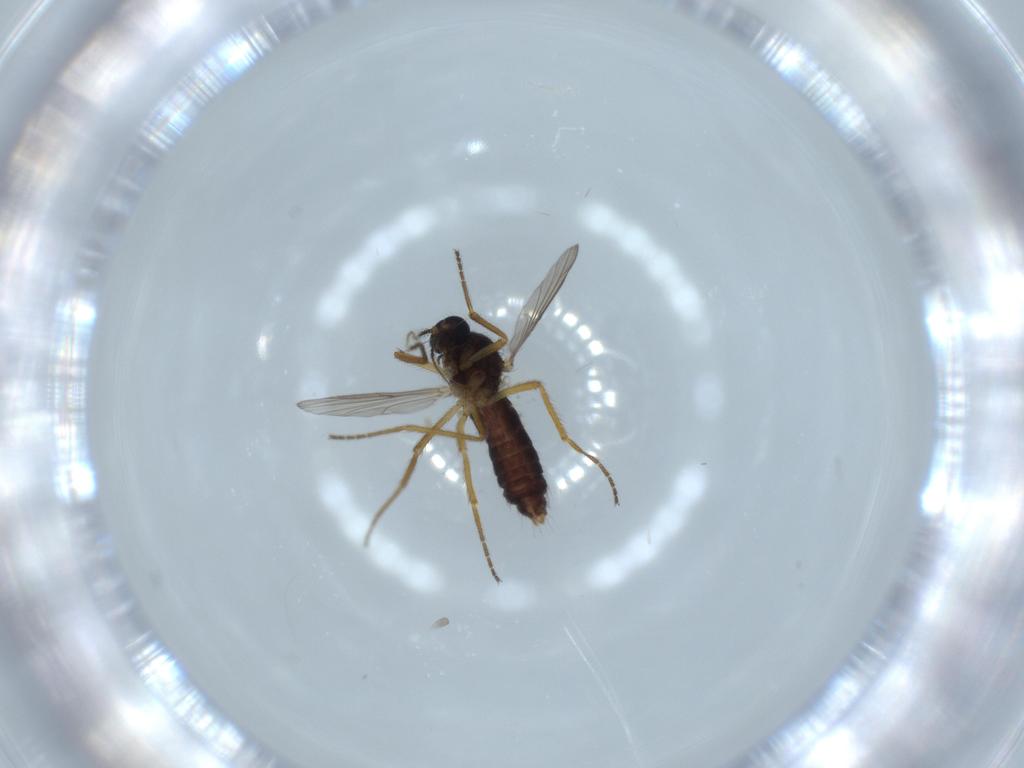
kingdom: Animalia
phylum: Arthropoda
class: Insecta
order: Diptera
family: Ceratopogonidae
